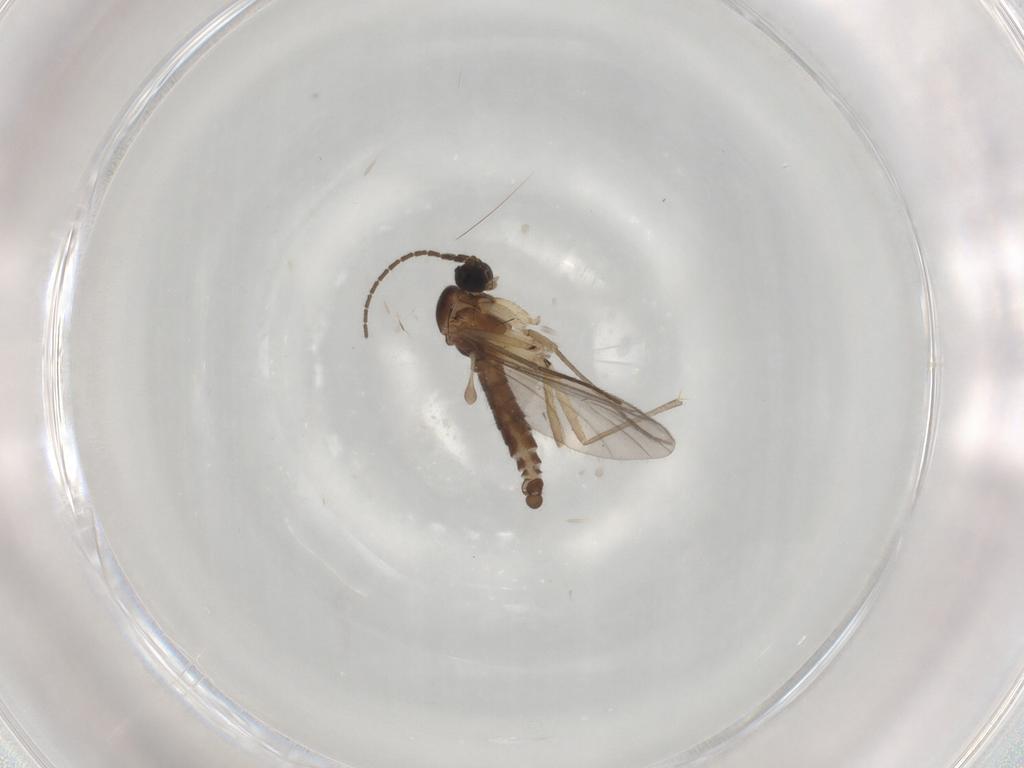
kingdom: Animalia
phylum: Arthropoda
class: Insecta
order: Diptera
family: Sciaridae
